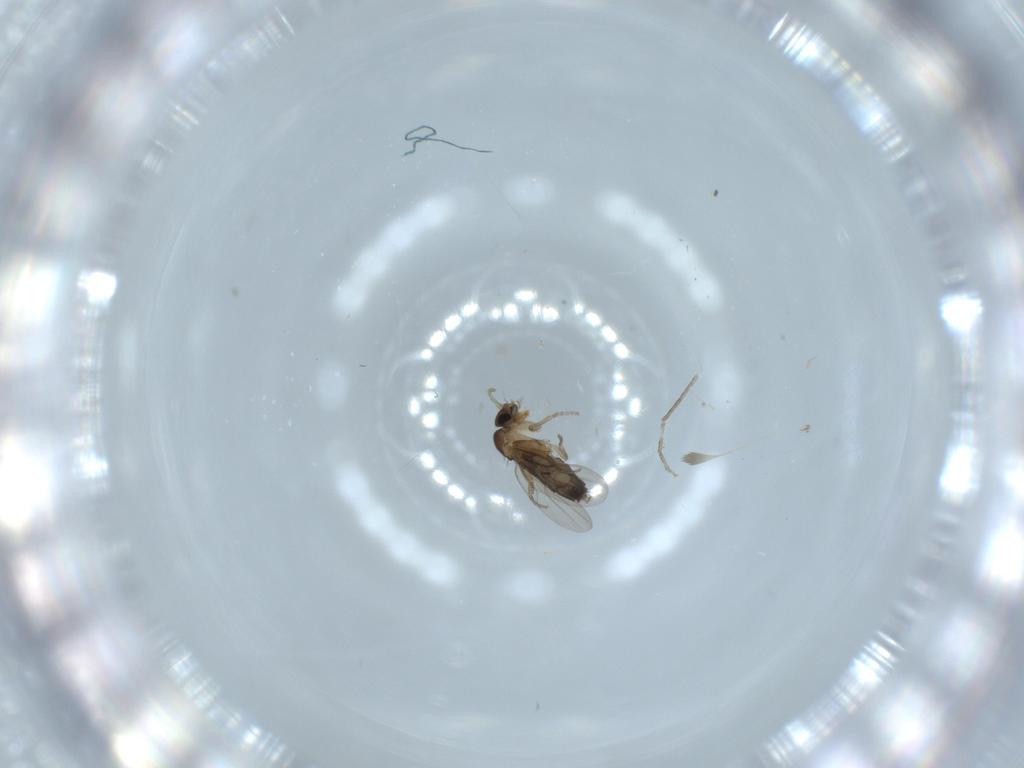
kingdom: Animalia
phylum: Arthropoda
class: Insecta
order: Diptera
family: Phoridae
